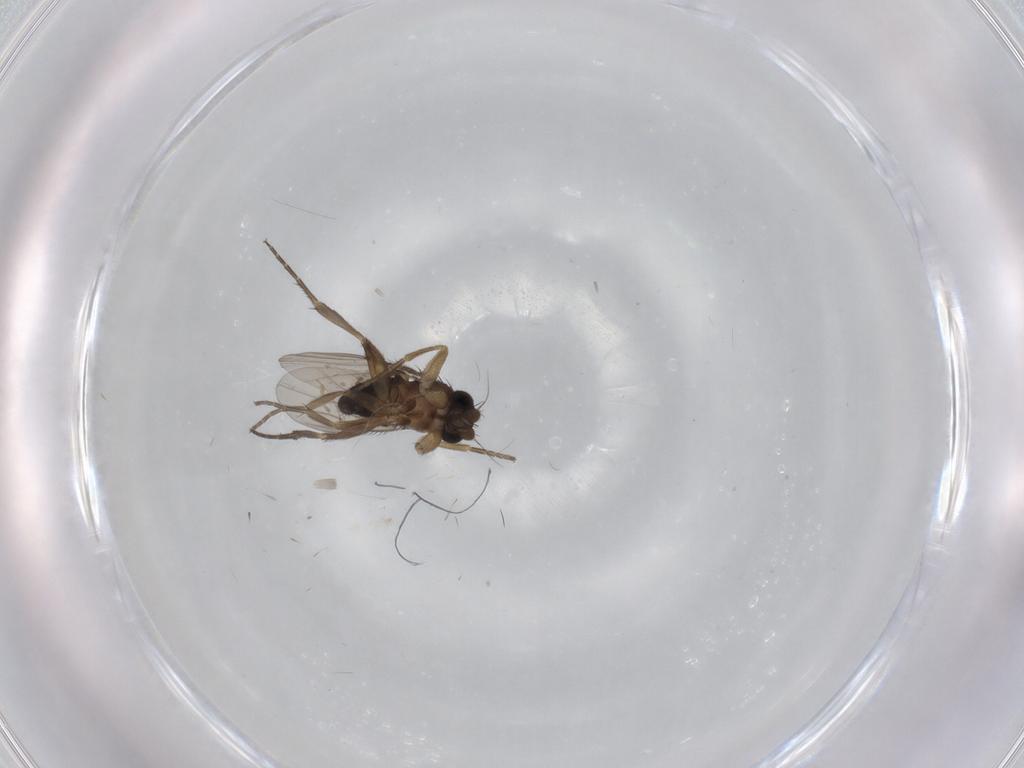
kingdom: Animalia
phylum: Arthropoda
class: Insecta
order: Diptera
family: Phoridae
